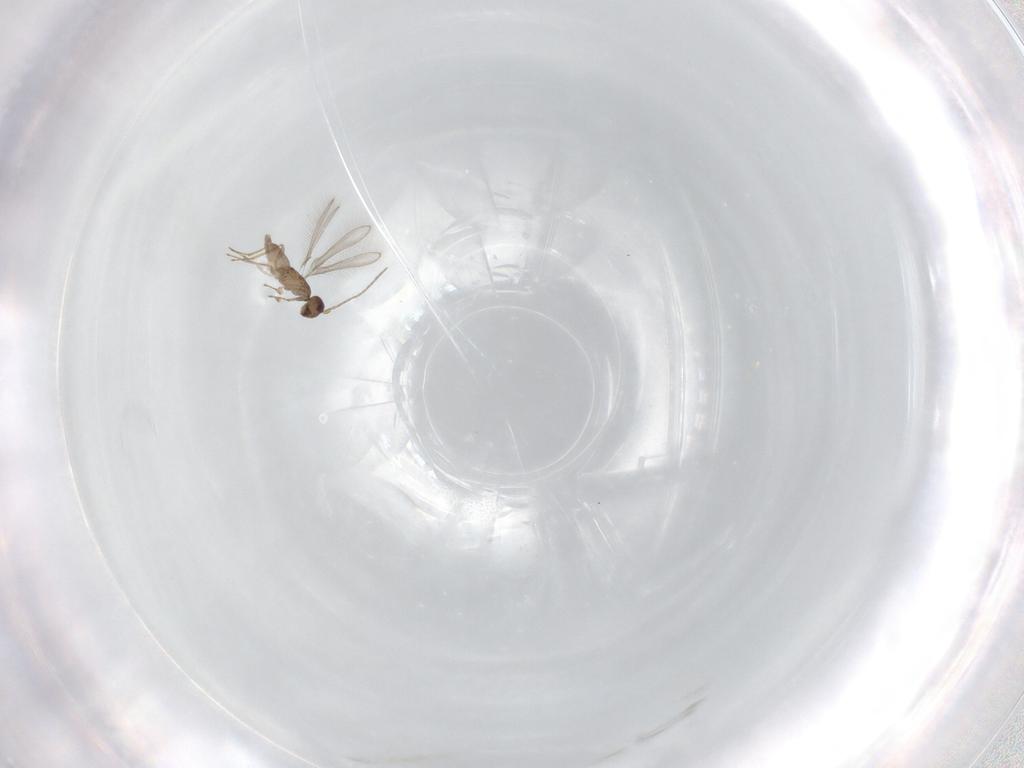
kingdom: Animalia
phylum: Arthropoda
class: Insecta
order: Hymenoptera
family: Mymaridae
